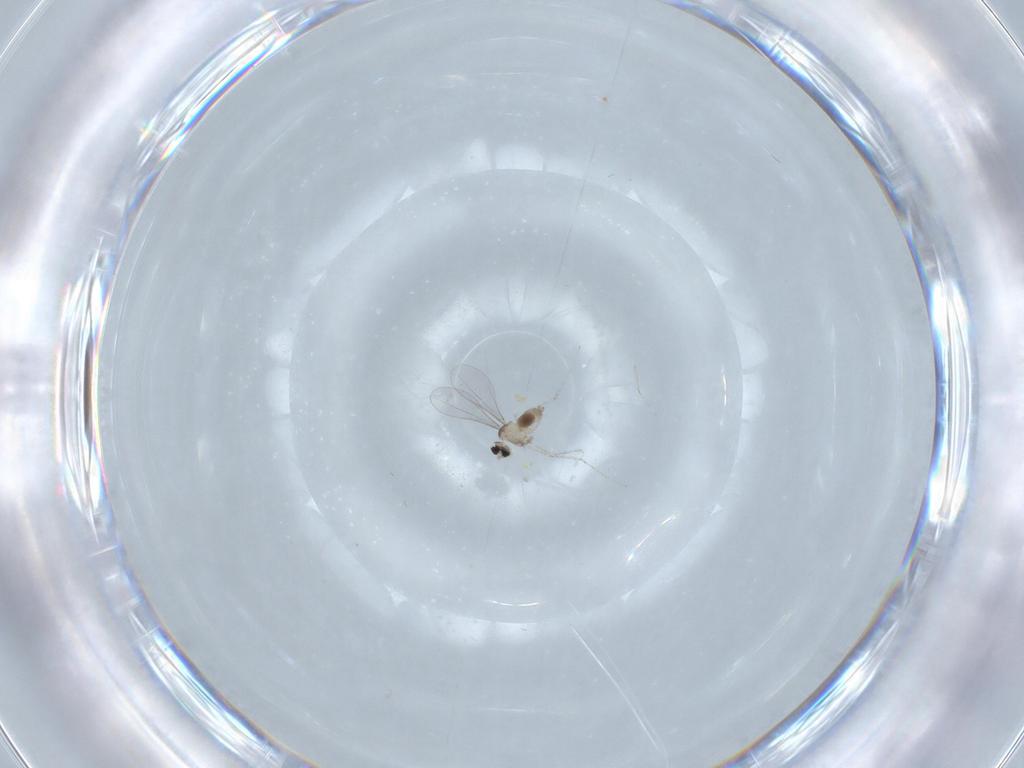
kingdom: Animalia
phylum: Arthropoda
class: Insecta
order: Diptera
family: Cecidomyiidae
